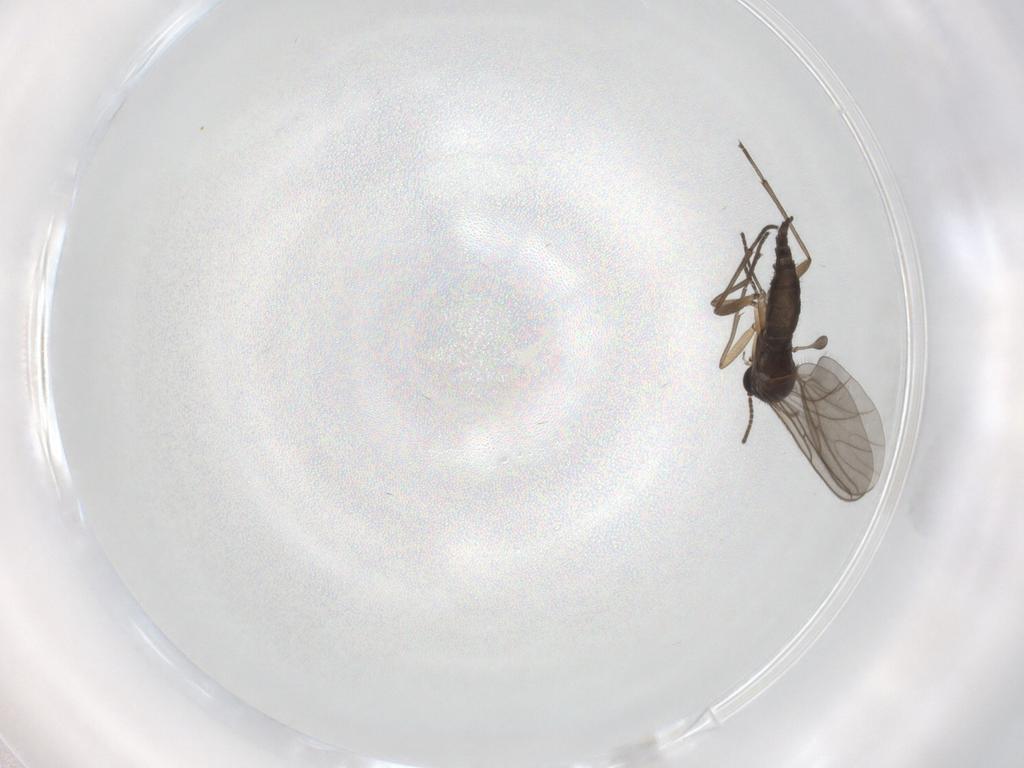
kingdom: Animalia
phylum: Arthropoda
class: Insecta
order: Diptera
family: Sciaridae
